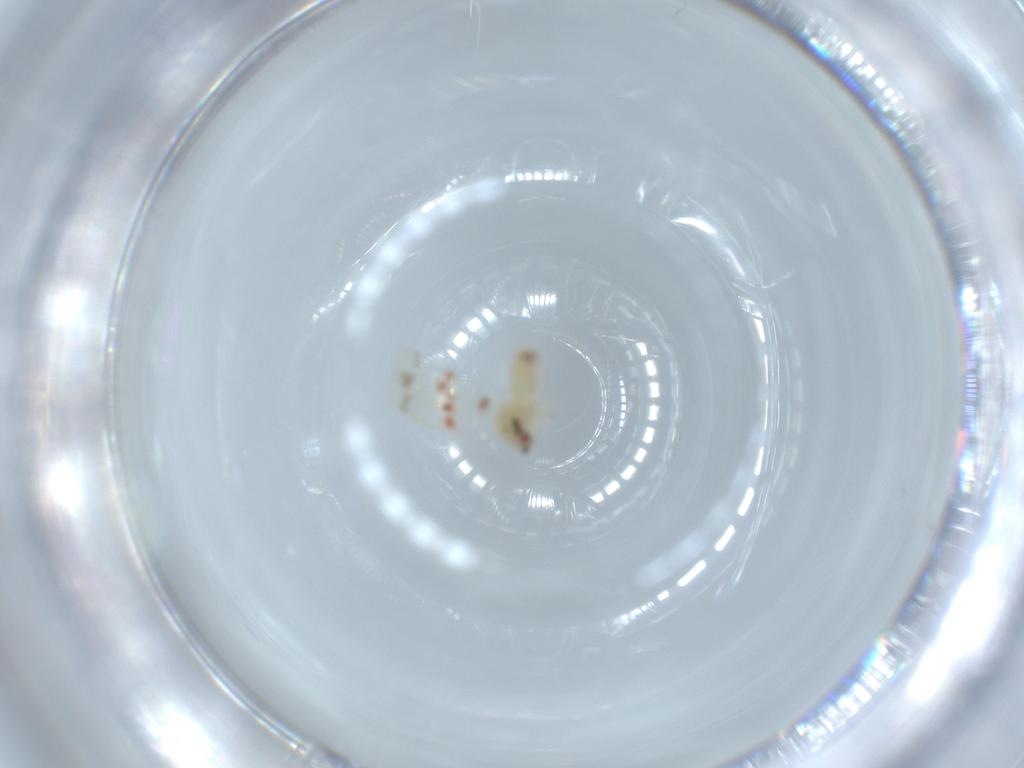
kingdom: Animalia
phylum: Arthropoda
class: Insecta
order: Hemiptera
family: Aleyrodidae
